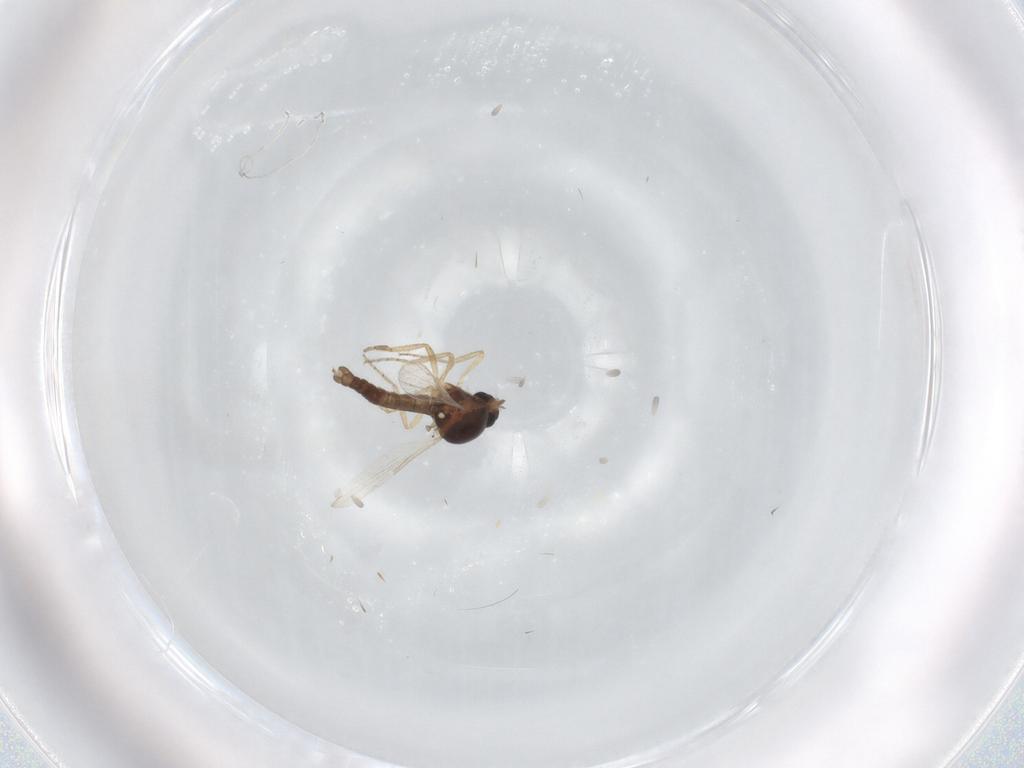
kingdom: Animalia
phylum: Arthropoda
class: Insecta
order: Diptera
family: Ceratopogonidae
